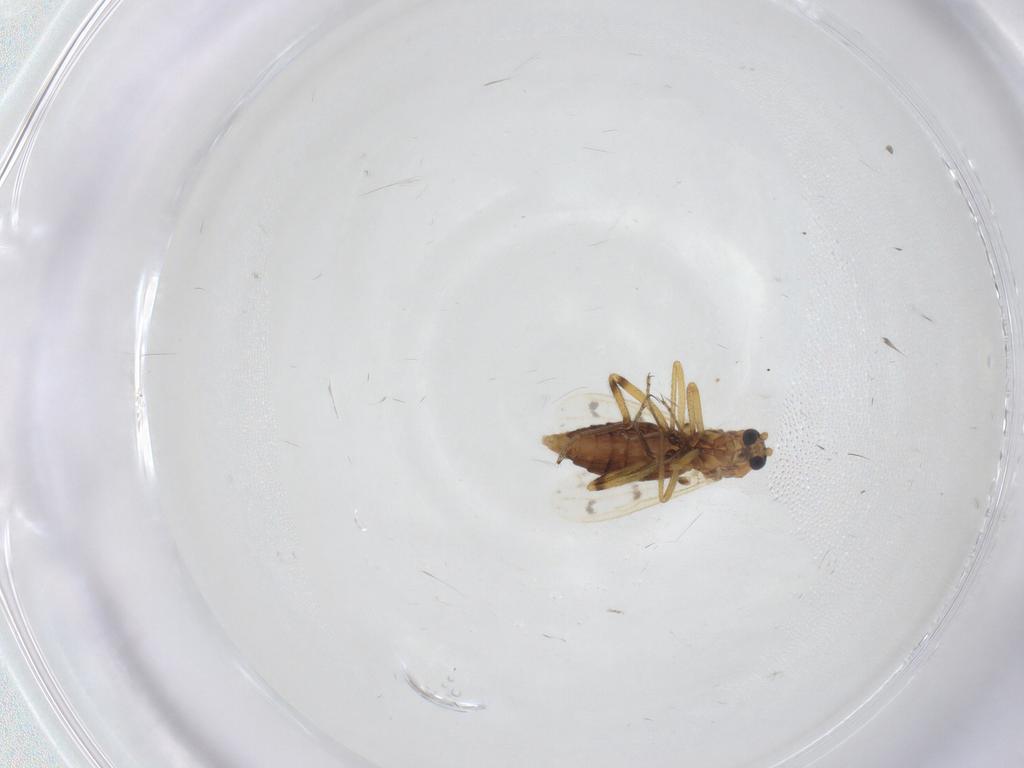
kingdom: Animalia
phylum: Arthropoda
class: Insecta
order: Diptera
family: Ceratopogonidae
